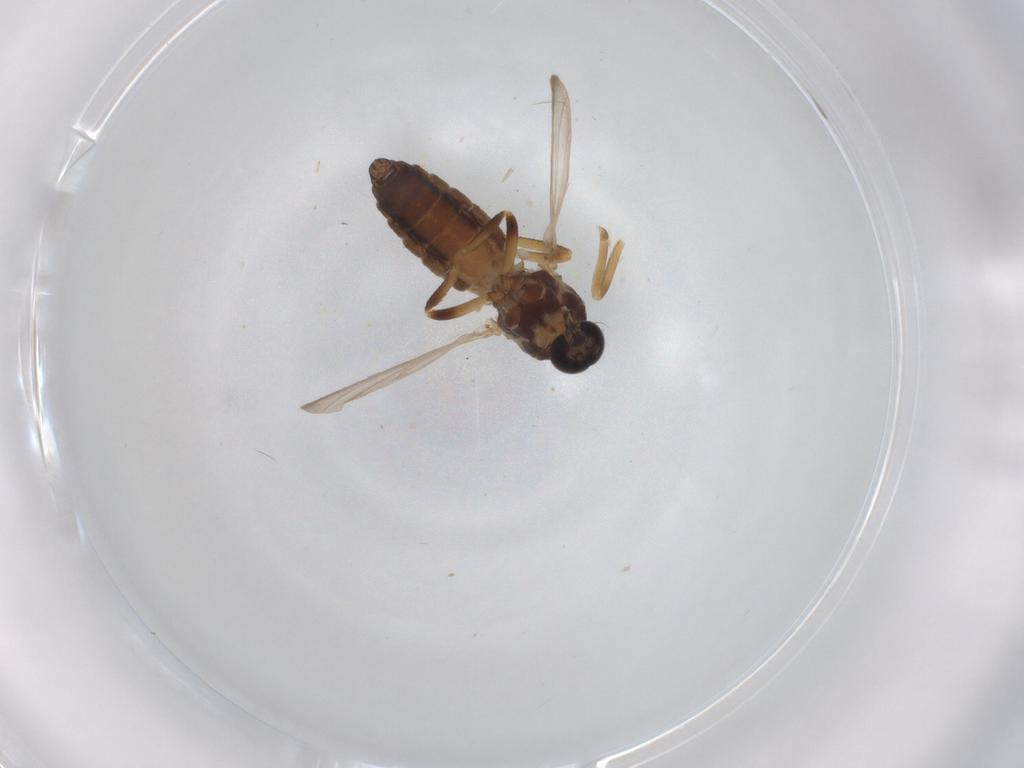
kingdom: Animalia
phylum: Arthropoda
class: Insecta
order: Diptera
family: Ceratopogonidae
